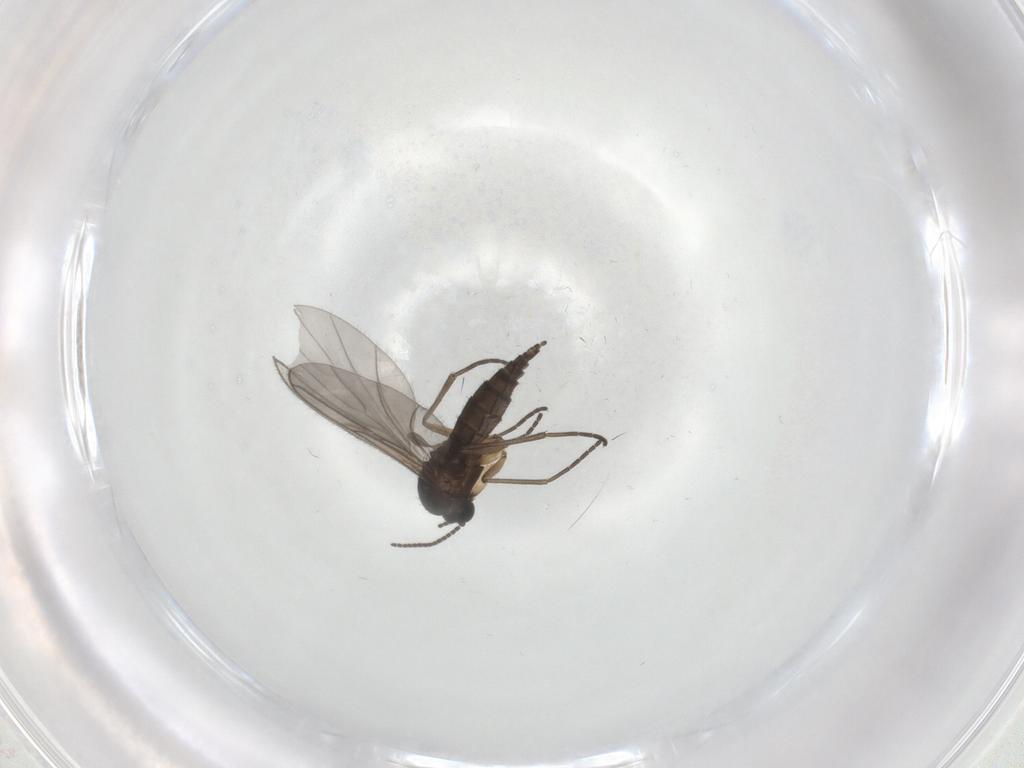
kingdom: Animalia
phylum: Arthropoda
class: Insecta
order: Diptera
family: Sciaridae
